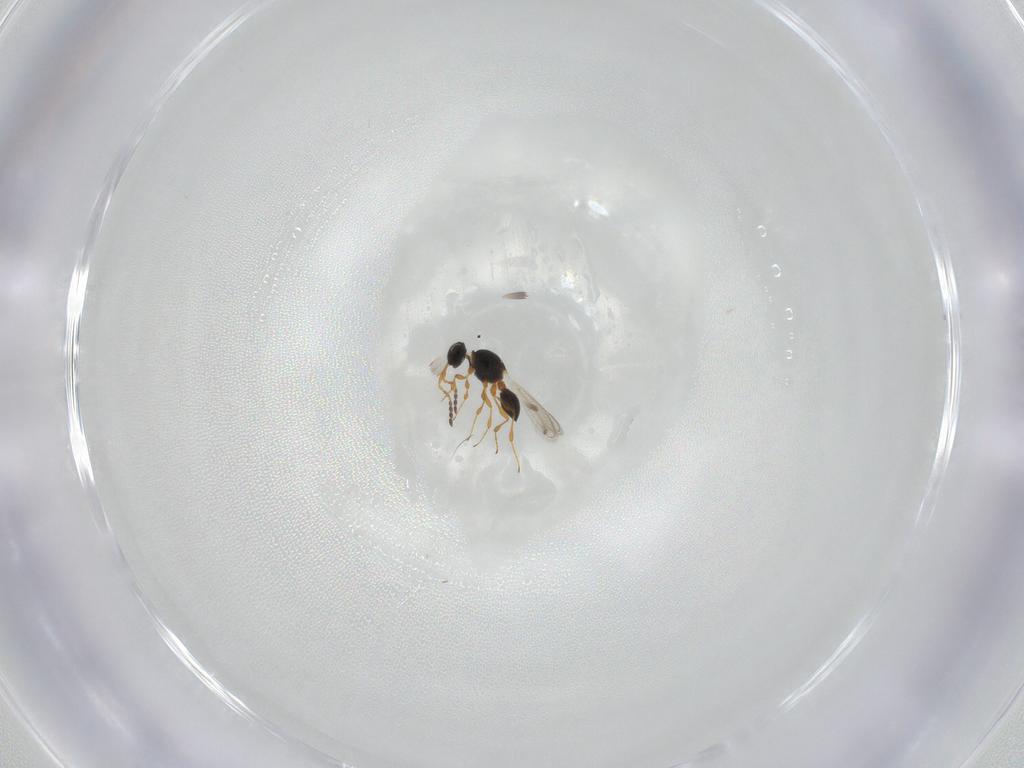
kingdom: Animalia
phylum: Arthropoda
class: Insecta
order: Hymenoptera
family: Platygastridae
